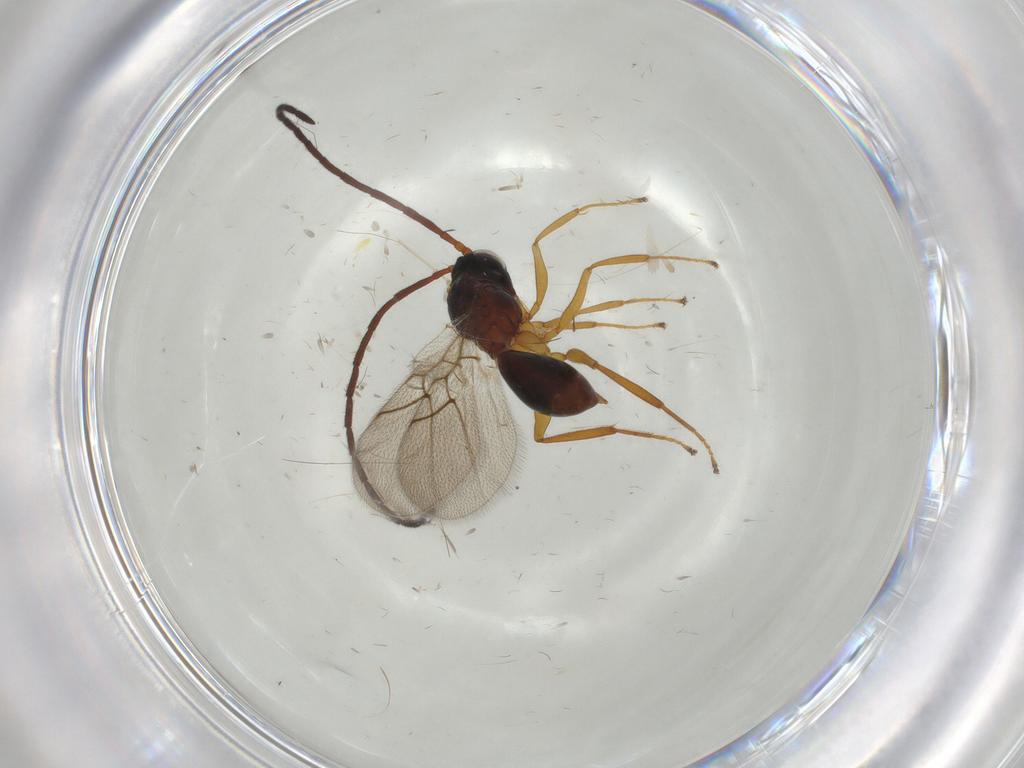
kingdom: Animalia
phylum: Arthropoda
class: Insecta
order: Hymenoptera
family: Figitidae
